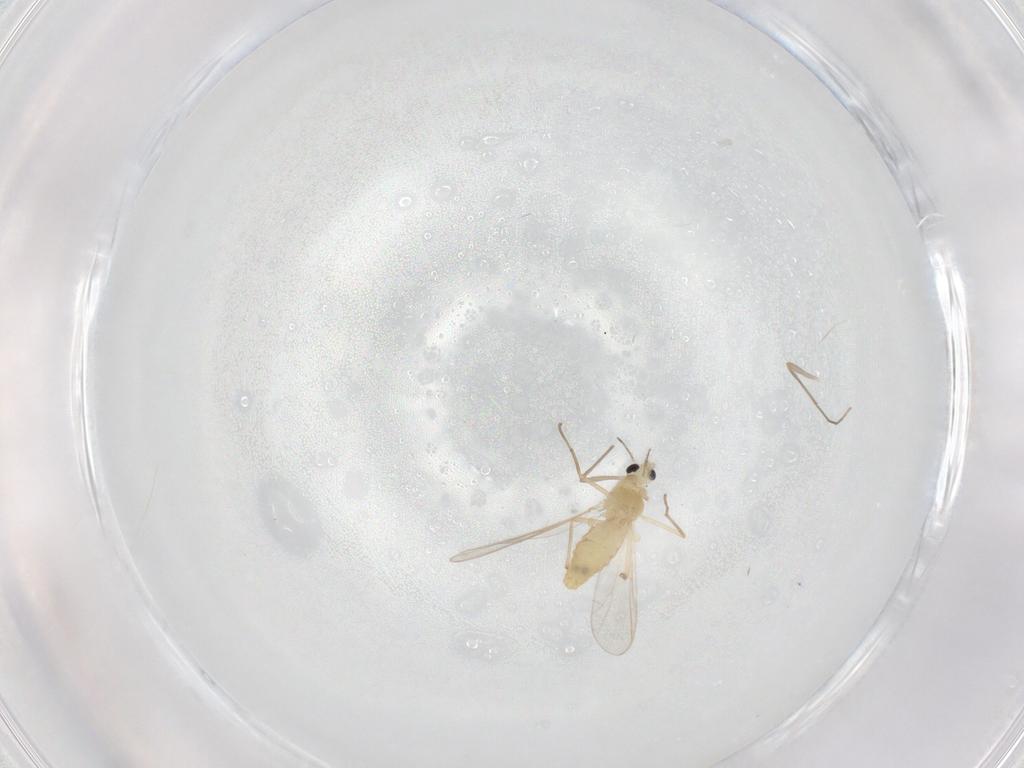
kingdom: Animalia
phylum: Arthropoda
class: Insecta
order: Diptera
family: Chironomidae
